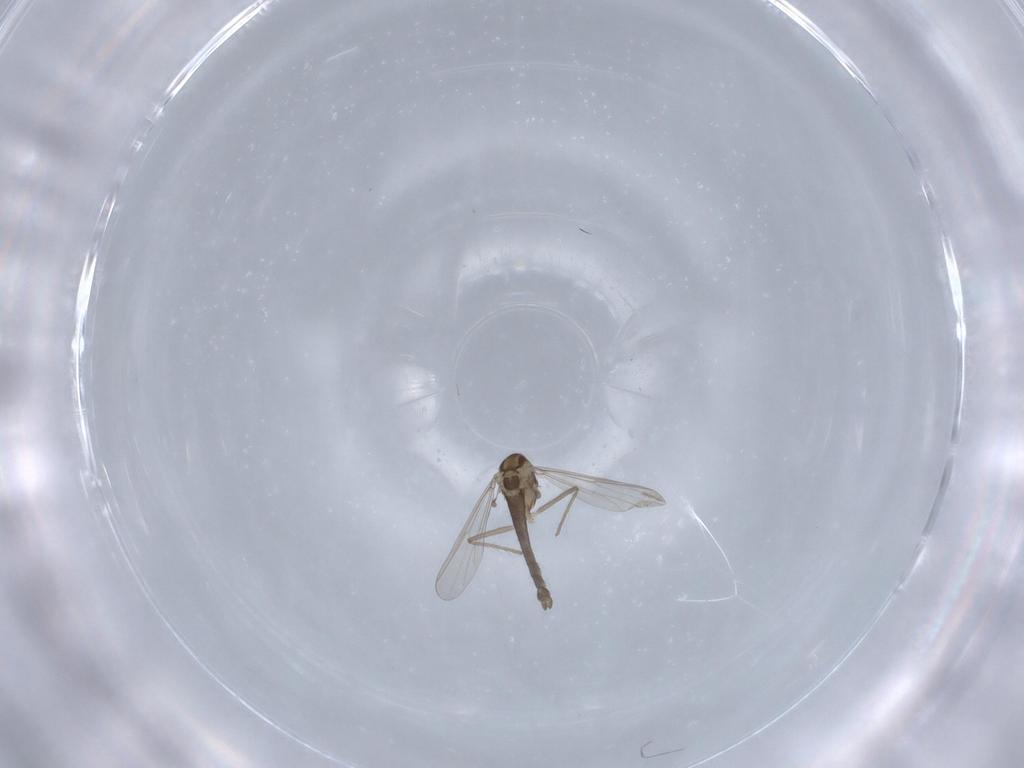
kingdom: Animalia
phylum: Arthropoda
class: Insecta
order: Diptera
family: Chironomidae
